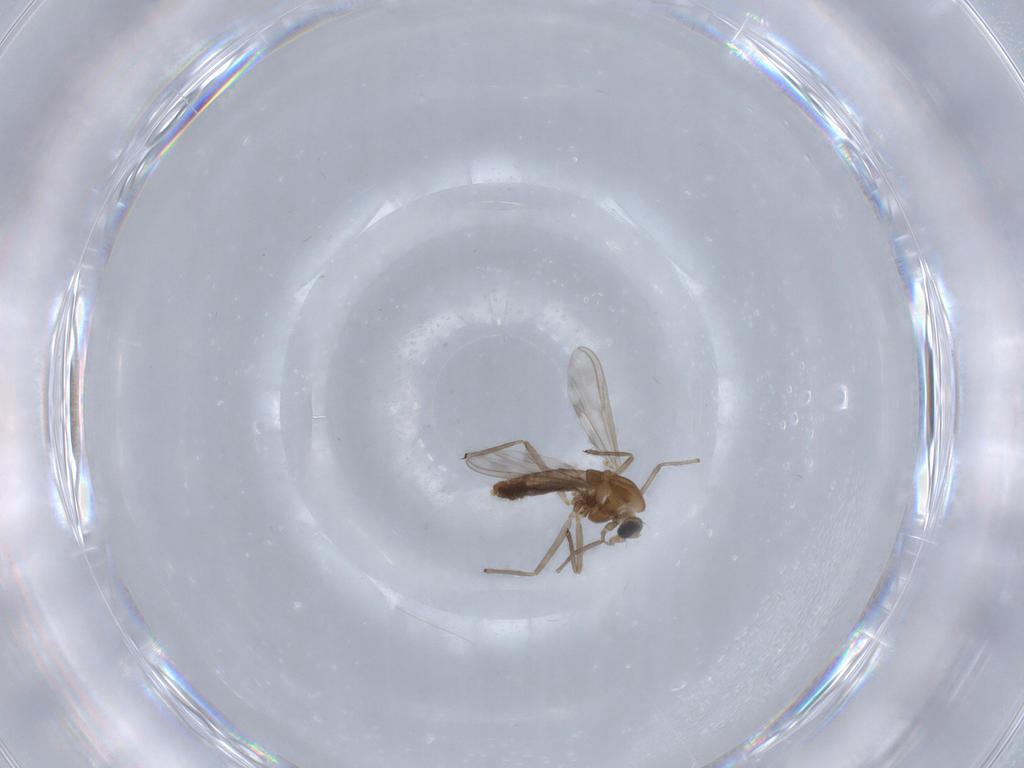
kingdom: Animalia
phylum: Arthropoda
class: Insecta
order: Diptera
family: Chironomidae
